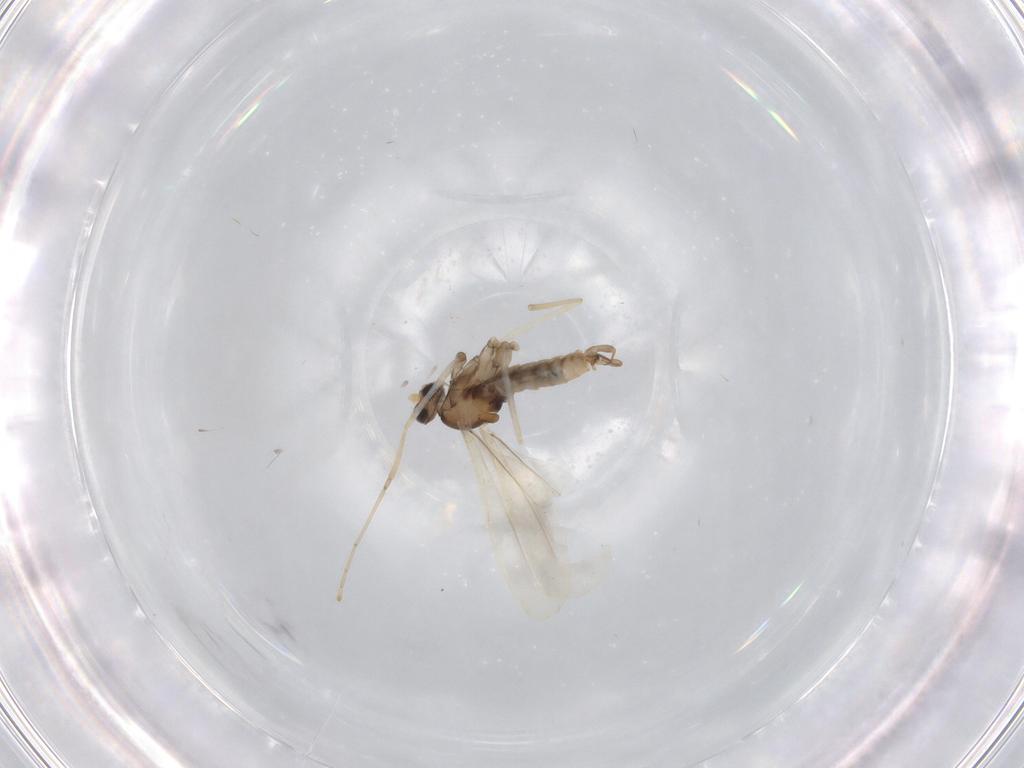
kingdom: Animalia
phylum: Arthropoda
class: Insecta
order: Diptera
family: Cecidomyiidae
